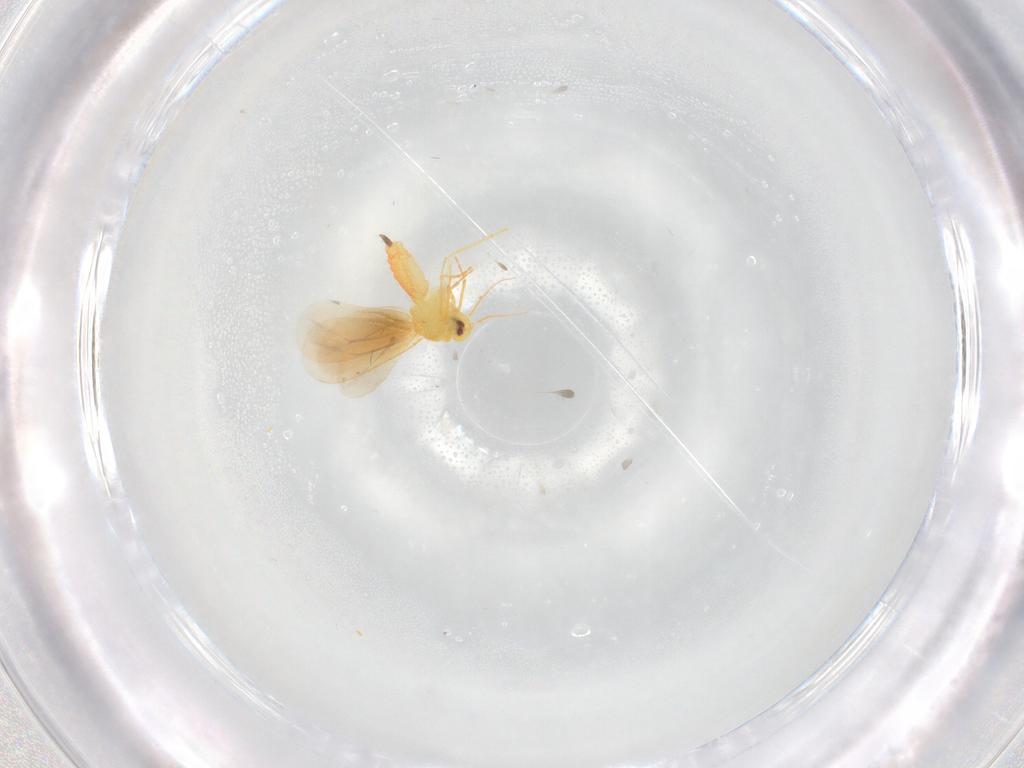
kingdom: Animalia
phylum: Arthropoda
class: Insecta
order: Hemiptera
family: Aleyrodidae
